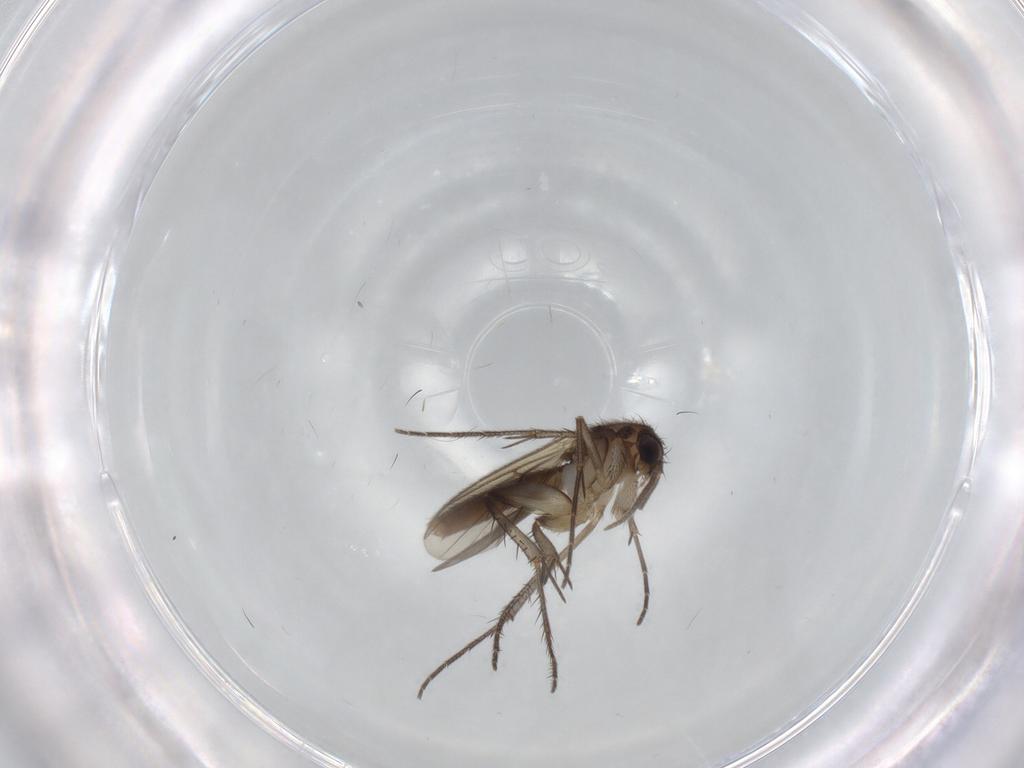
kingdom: Animalia
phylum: Arthropoda
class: Insecta
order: Diptera
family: Mycetophilidae
